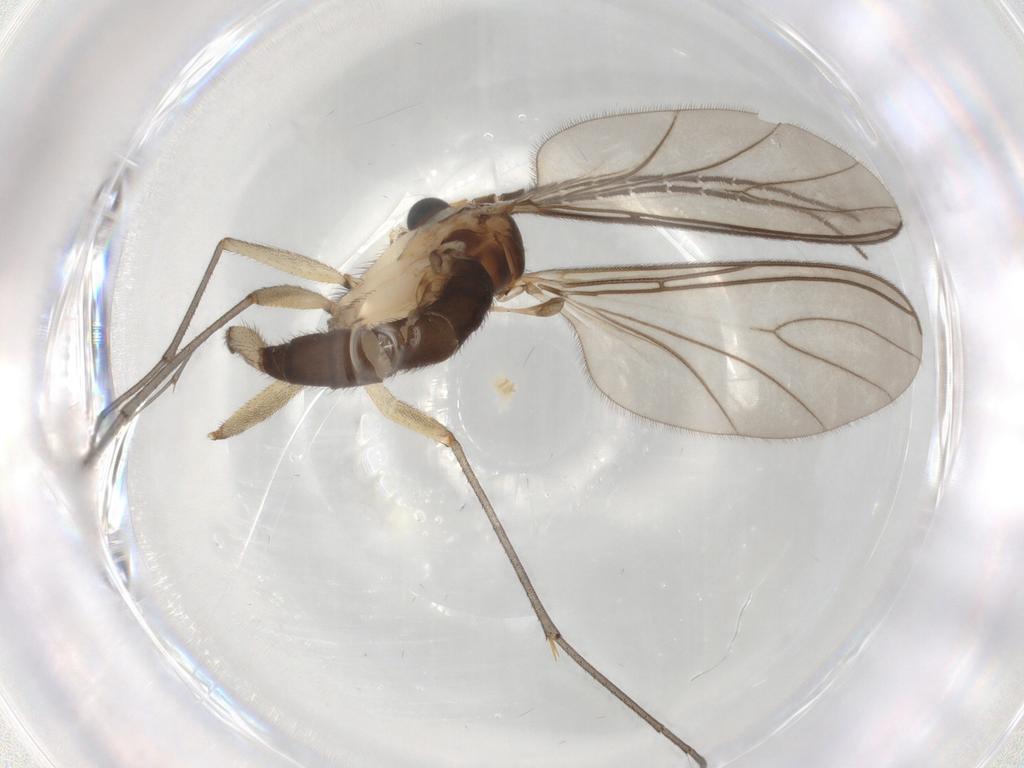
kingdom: Animalia
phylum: Arthropoda
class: Insecta
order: Diptera
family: Sciaridae
